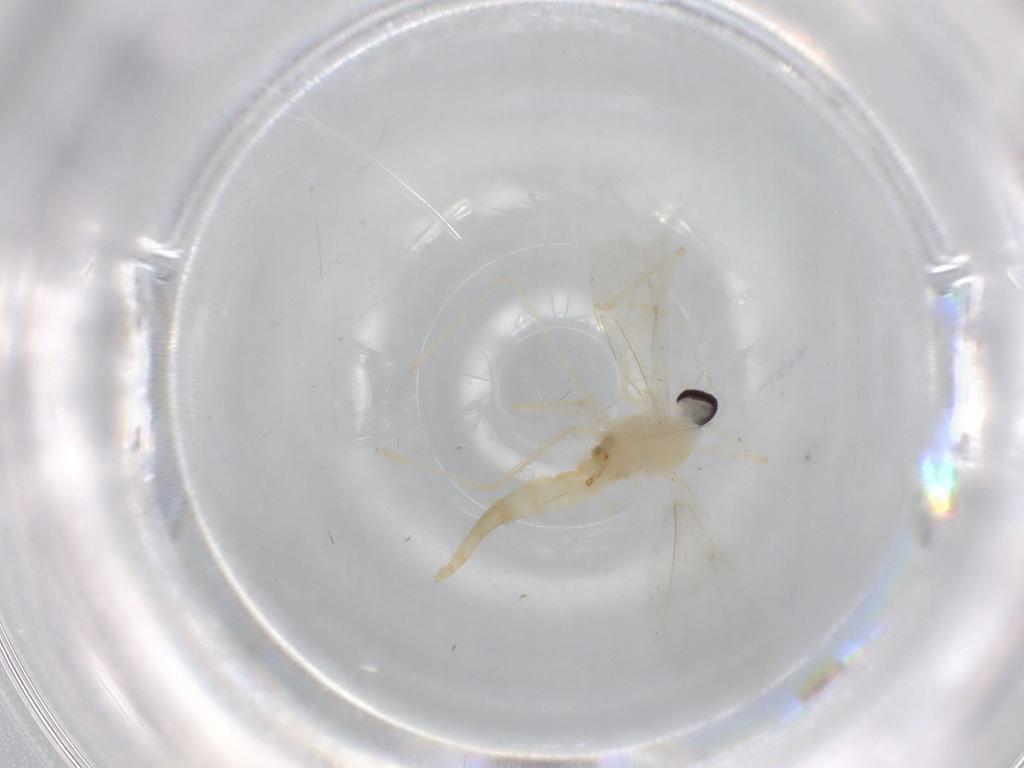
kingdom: Animalia
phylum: Arthropoda
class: Insecta
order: Diptera
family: Cecidomyiidae
